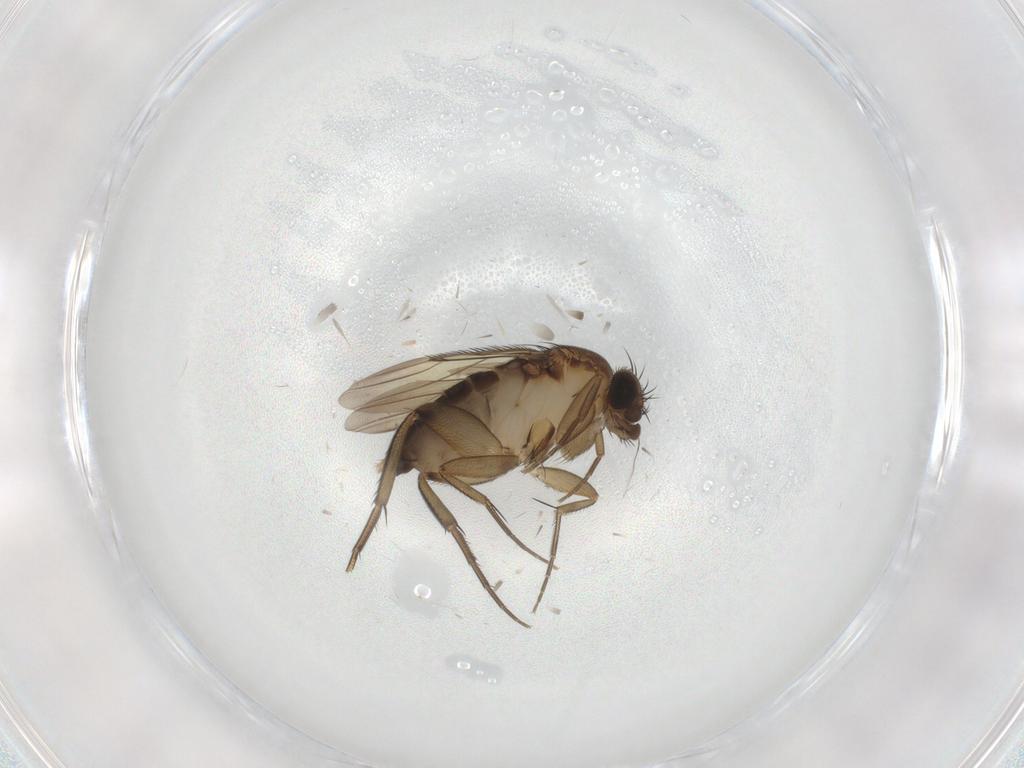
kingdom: Animalia
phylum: Arthropoda
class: Insecta
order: Diptera
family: Phoridae
